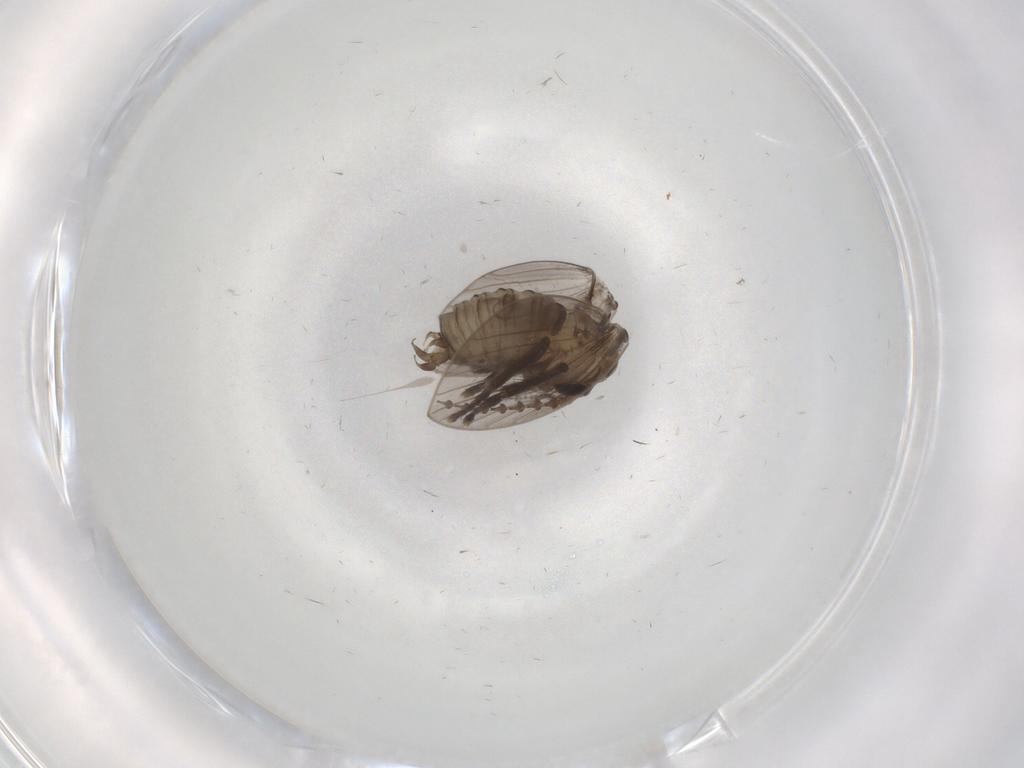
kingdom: Animalia
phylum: Arthropoda
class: Insecta
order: Diptera
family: Psychodidae
